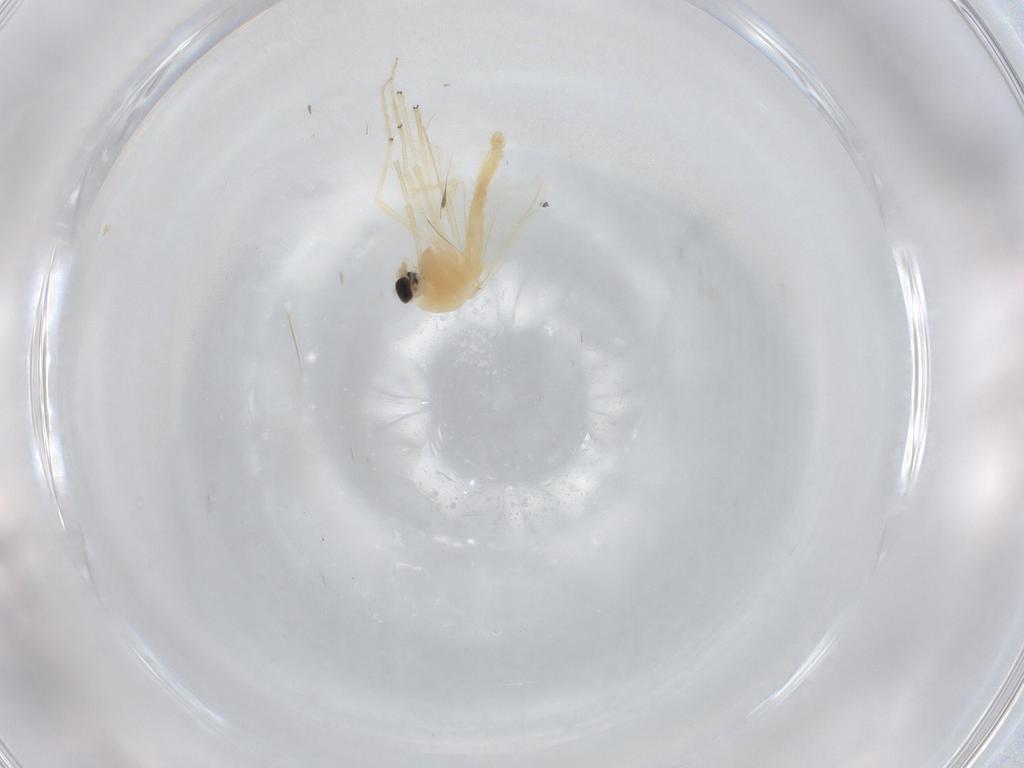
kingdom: Animalia
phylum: Arthropoda
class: Insecta
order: Diptera
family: Chironomidae
